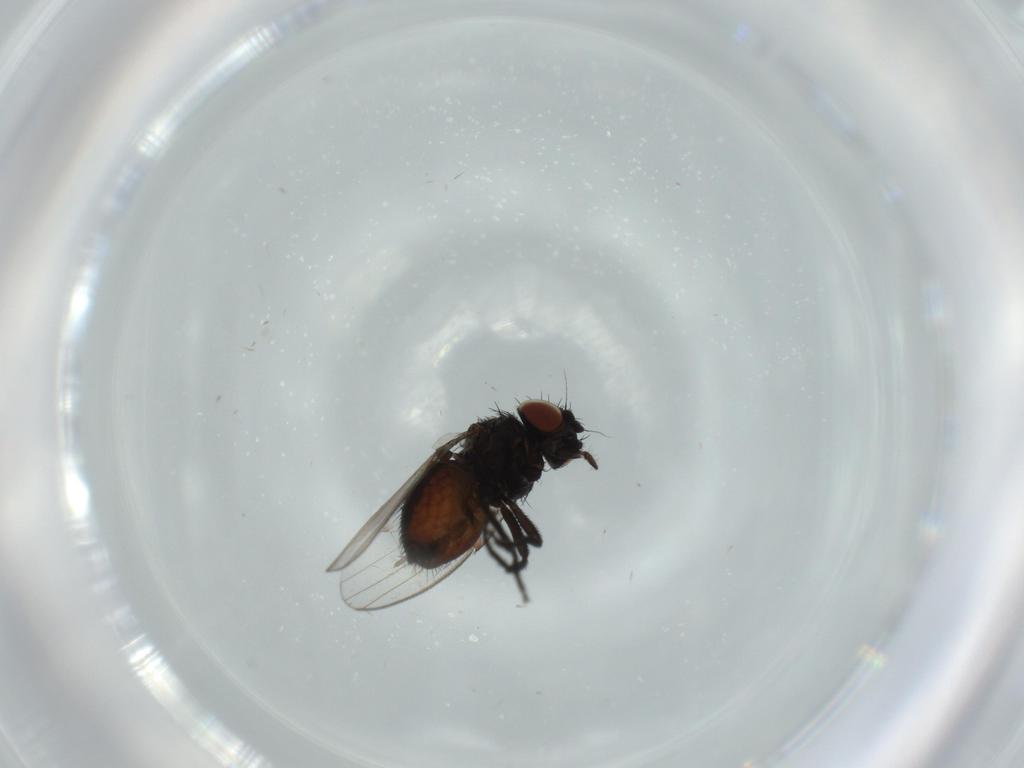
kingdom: Animalia
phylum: Arthropoda
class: Insecta
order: Diptera
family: Milichiidae
